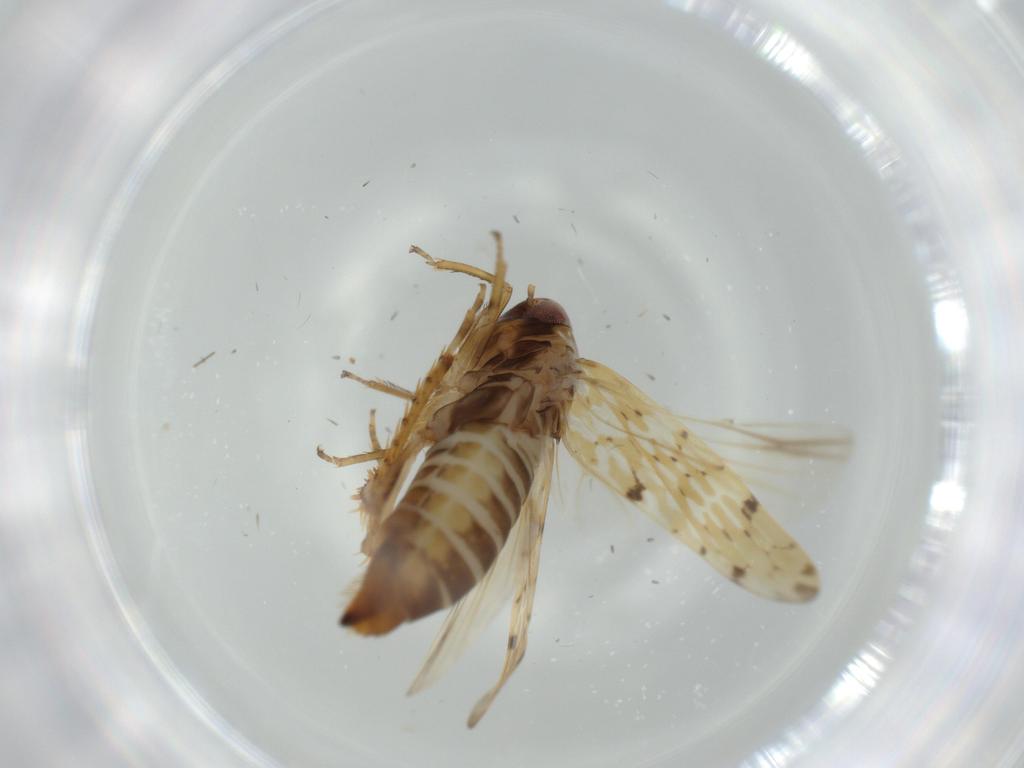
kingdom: Animalia
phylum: Arthropoda
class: Insecta
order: Hemiptera
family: Cicadellidae
